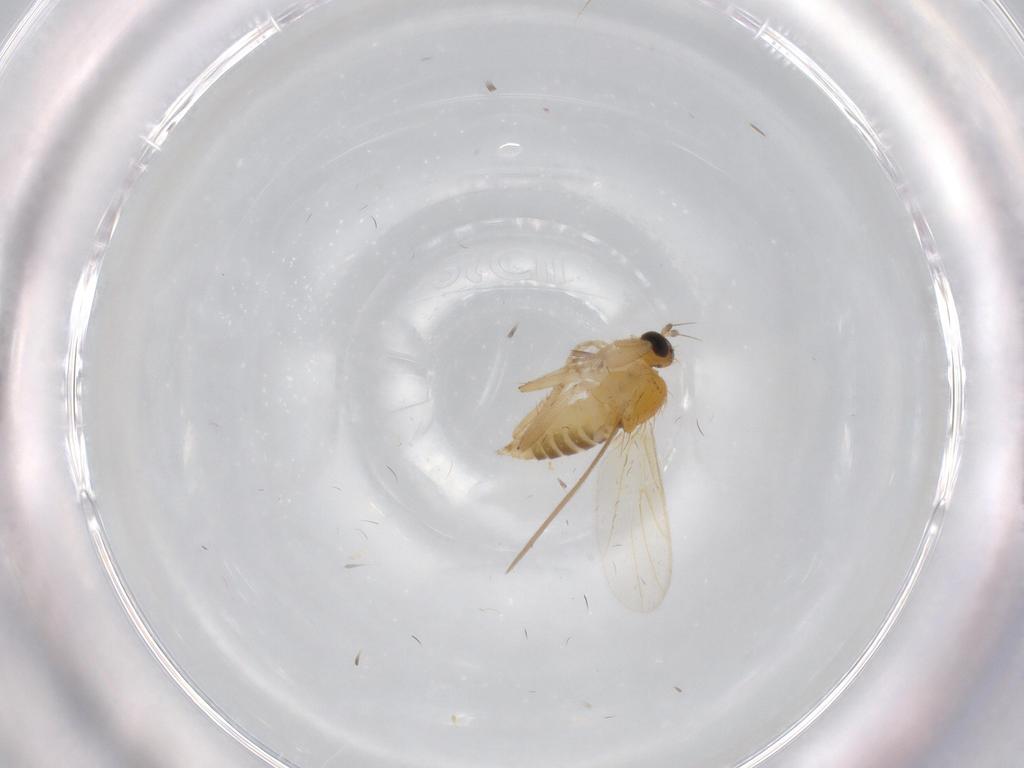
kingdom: Animalia
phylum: Arthropoda
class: Insecta
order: Diptera
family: Hybotidae
